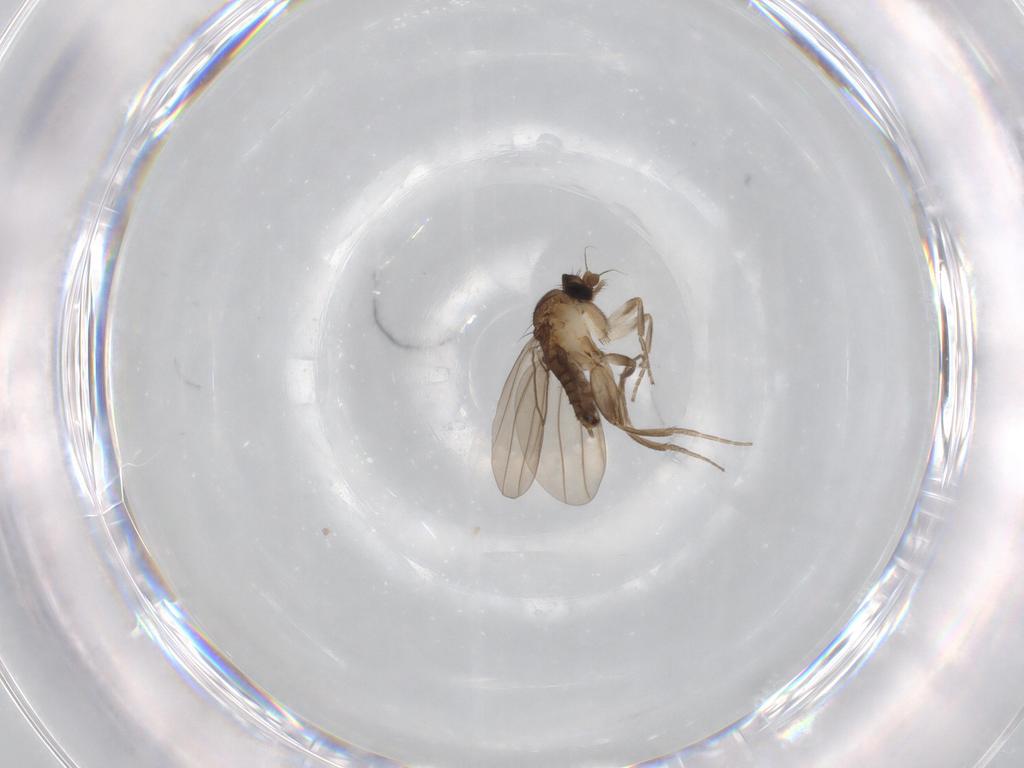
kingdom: Animalia
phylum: Arthropoda
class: Insecta
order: Diptera
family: Phoridae
